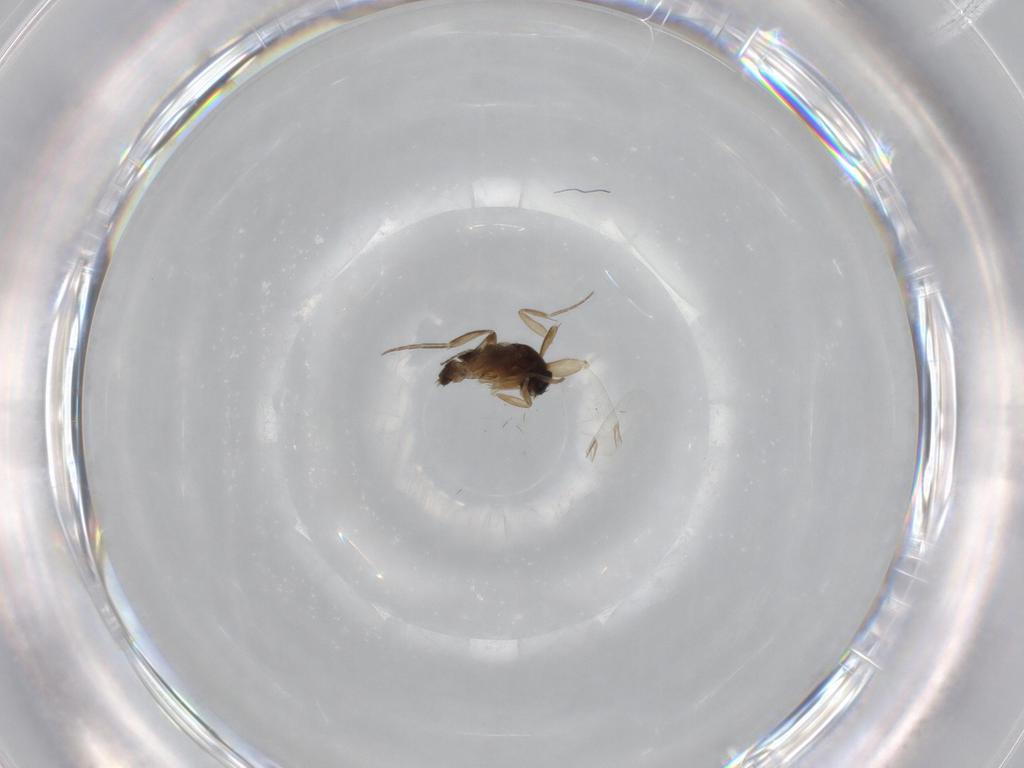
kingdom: Animalia
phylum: Arthropoda
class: Insecta
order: Diptera
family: Phoridae
